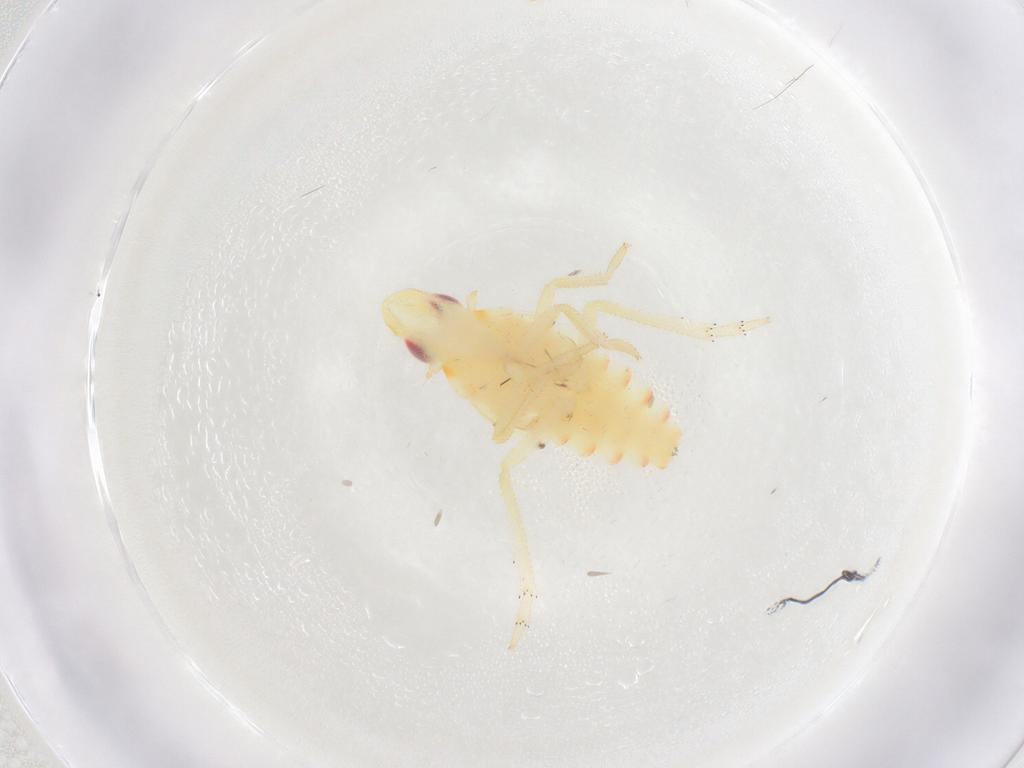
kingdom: Animalia
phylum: Arthropoda
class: Insecta
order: Hemiptera
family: Tropiduchidae
